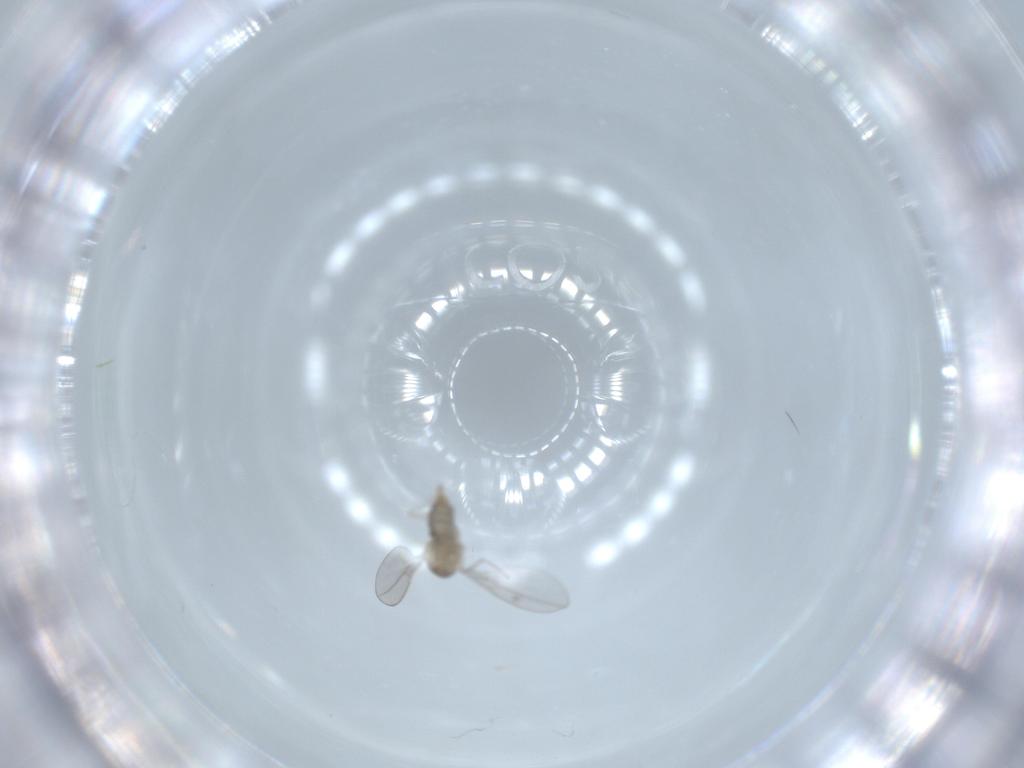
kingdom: Animalia
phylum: Arthropoda
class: Insecta
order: Diptera
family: Cecidomyiidae
